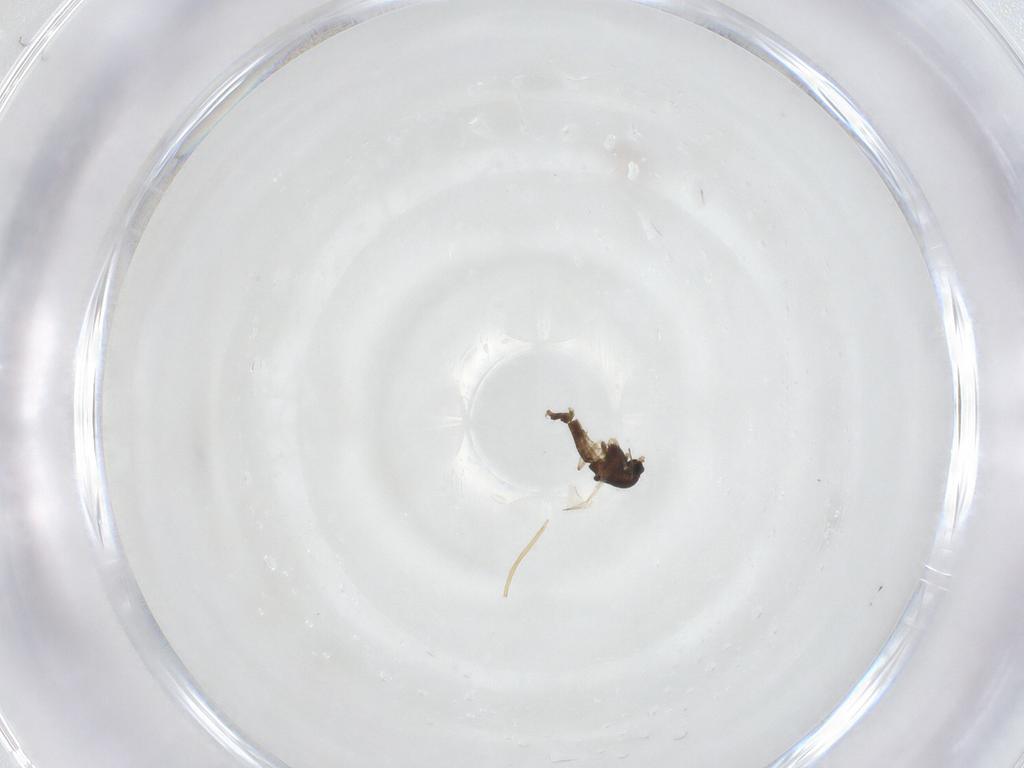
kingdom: Animalia
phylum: Arthropoda
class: Insecta
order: Diptera
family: Chironomidae
